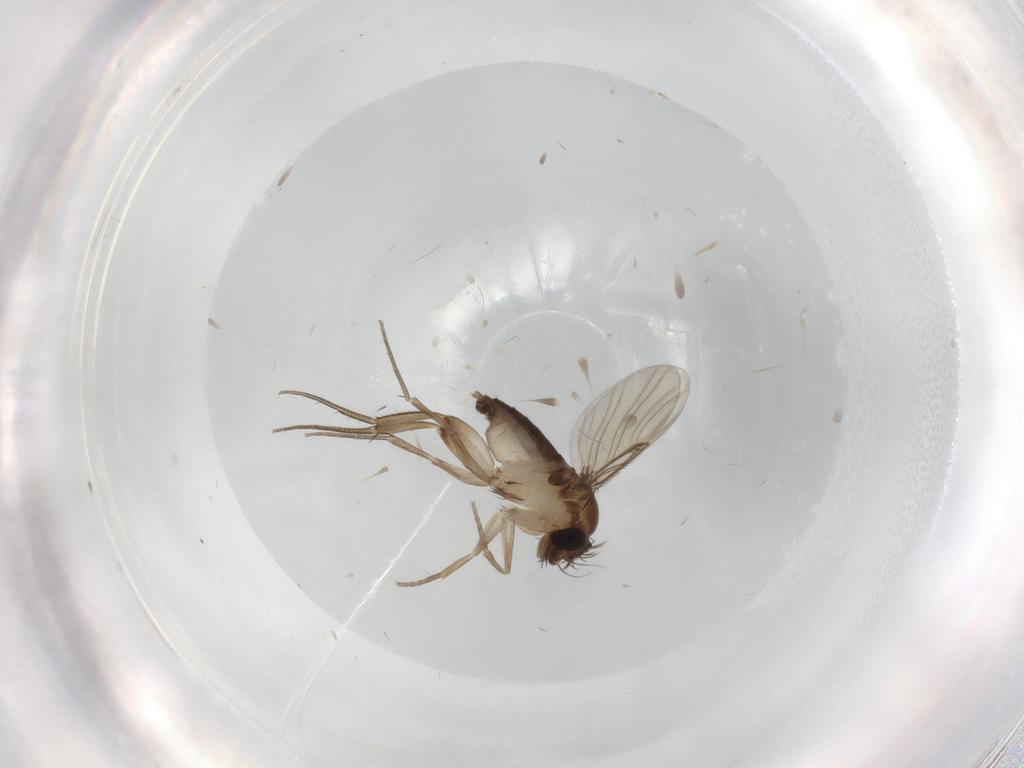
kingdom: Animalia
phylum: Arthropoda
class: Insecta
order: Diptera
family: Phoridae
